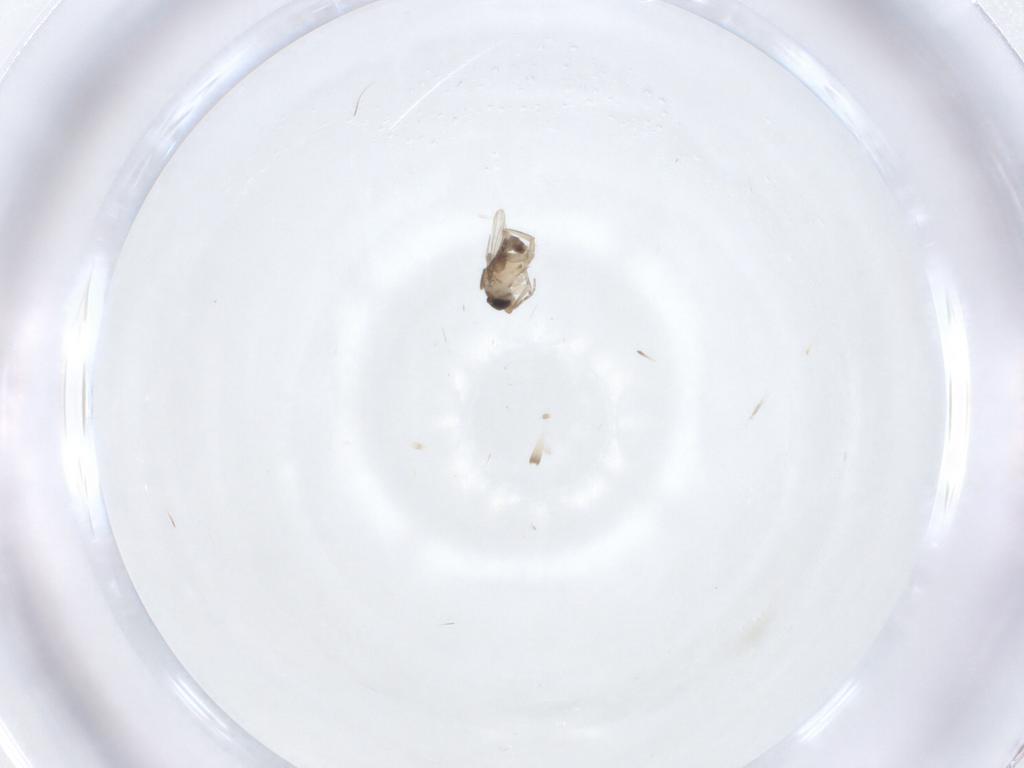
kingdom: Animalia
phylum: Arthropoda
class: Insecta
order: Diptera
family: Phoridae
